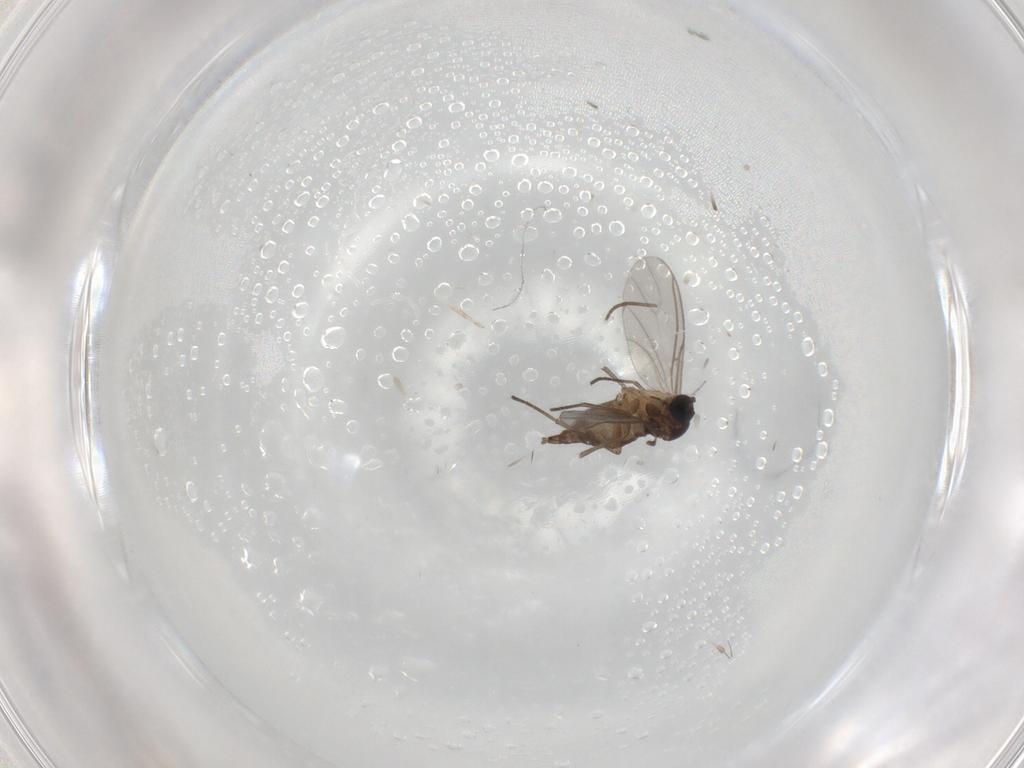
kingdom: Animalia
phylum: Arthropoda
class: Insecta
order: Diptera
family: Sciaridae
